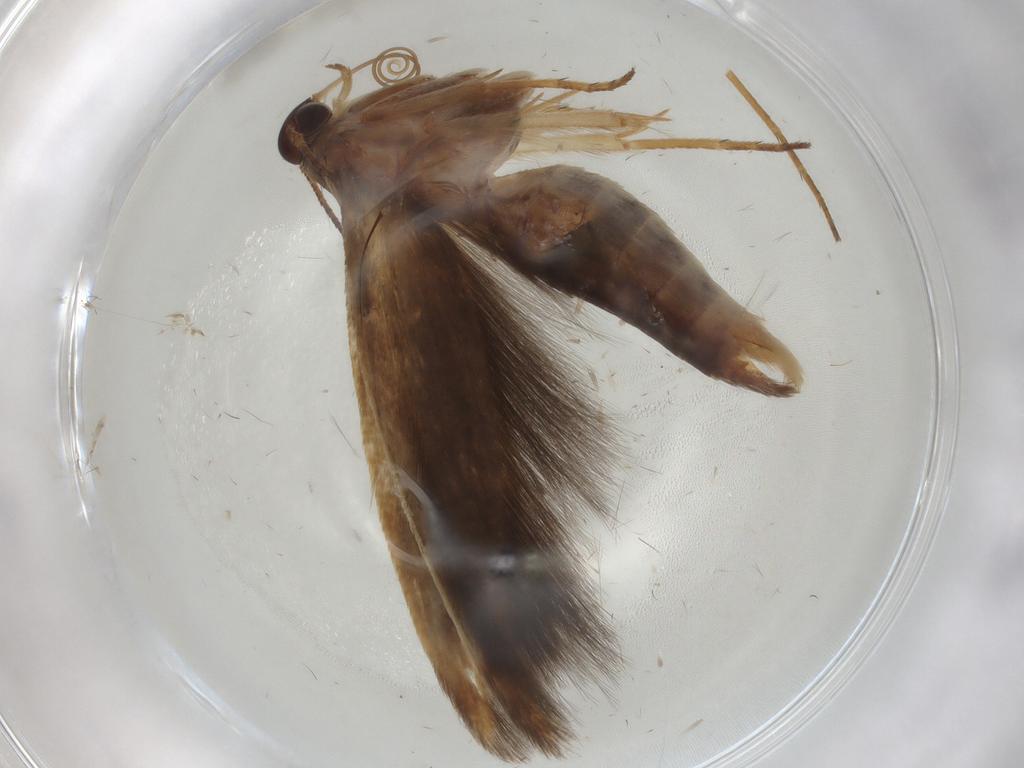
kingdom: Animalia
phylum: Arthropoda
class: Insecta
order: Lepidoptera
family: Scythrididae
